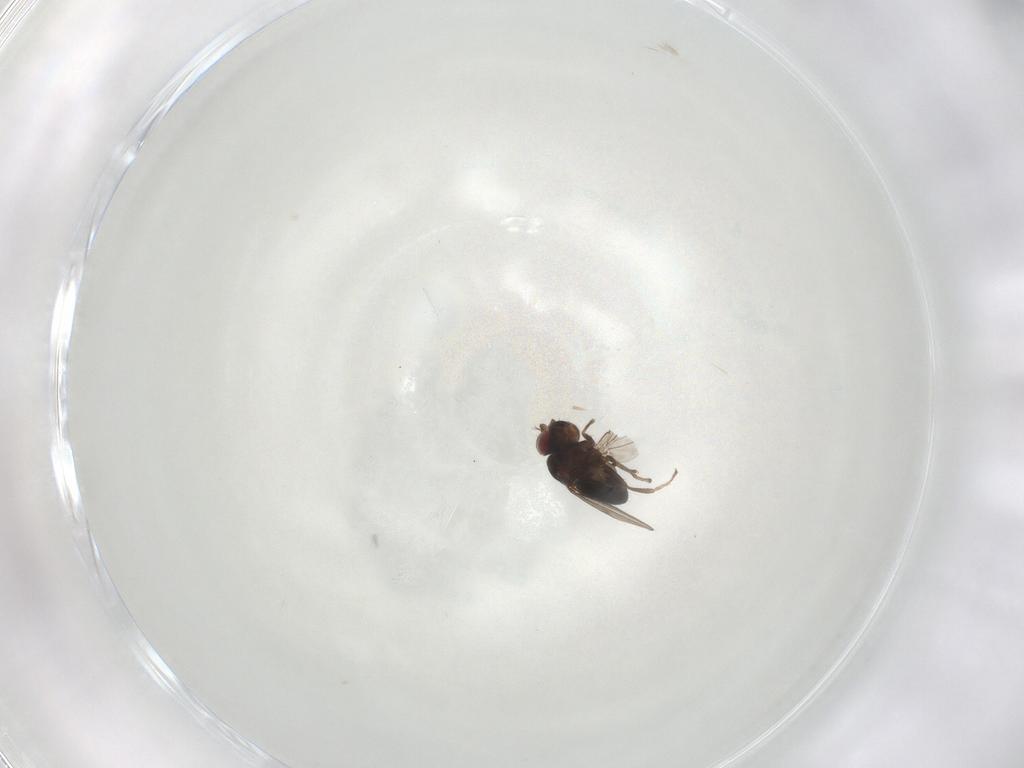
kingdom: Animalia
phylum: Arthropoda
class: Insecta
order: Diptera
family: Ephydridae
